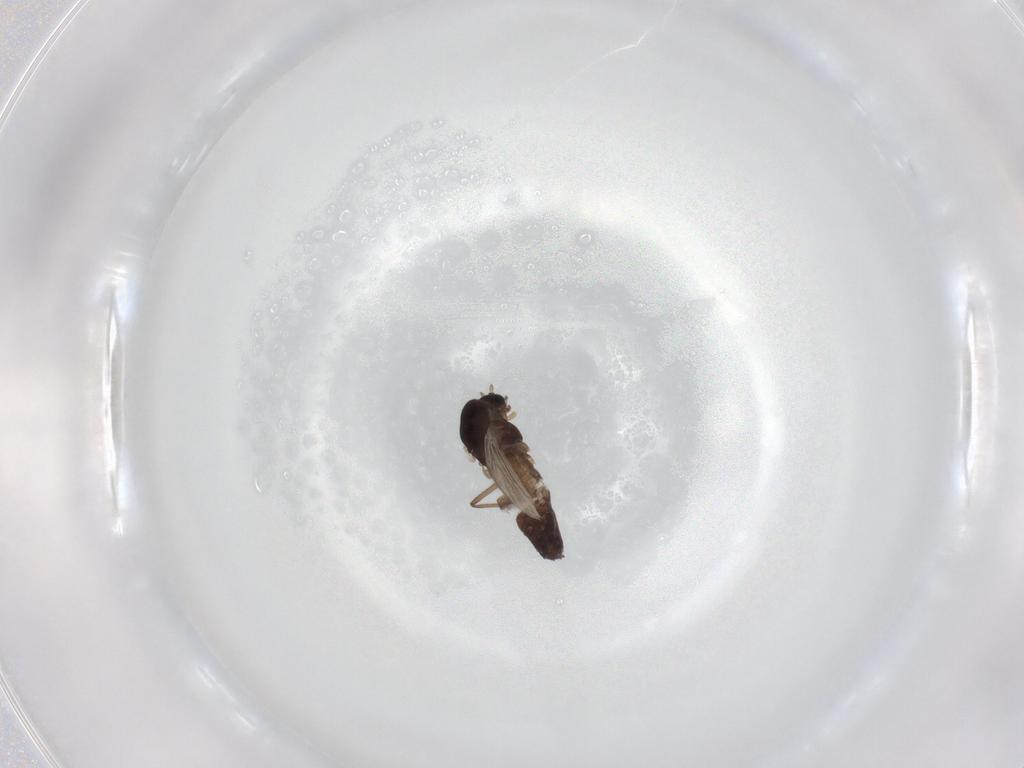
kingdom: Animalia
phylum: Arthropoda
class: Insecta
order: Diptera
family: Chironomidae
